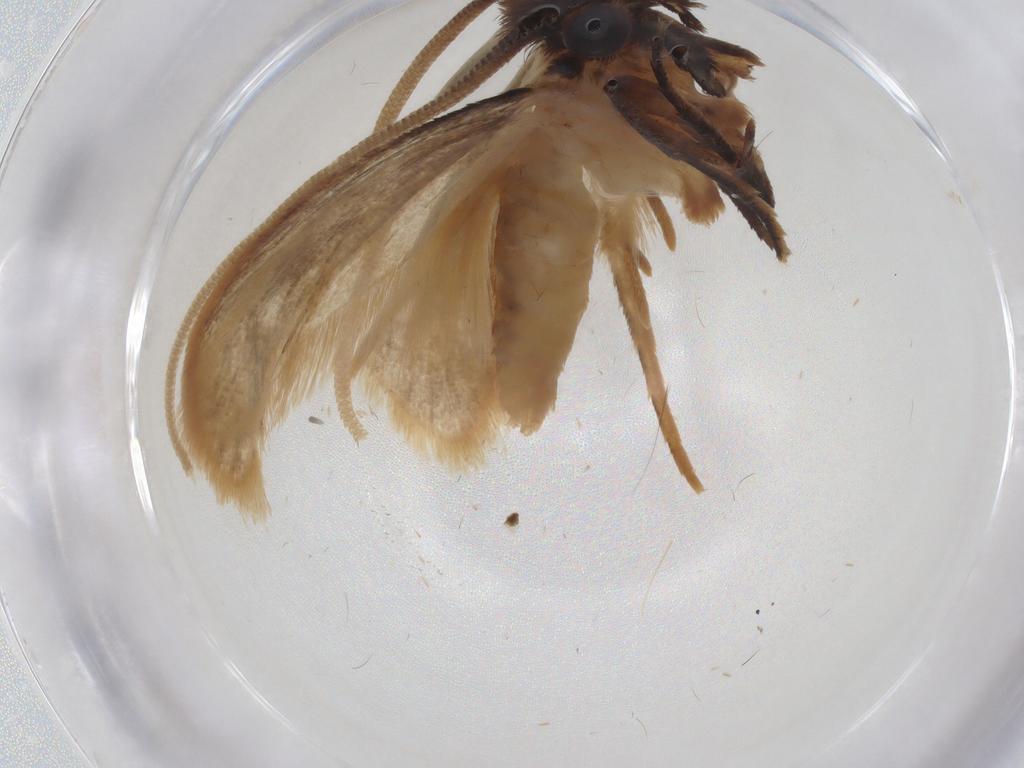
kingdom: Animalia
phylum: Arthropoda
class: Insecta
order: Lepidoptera
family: Tineidae
